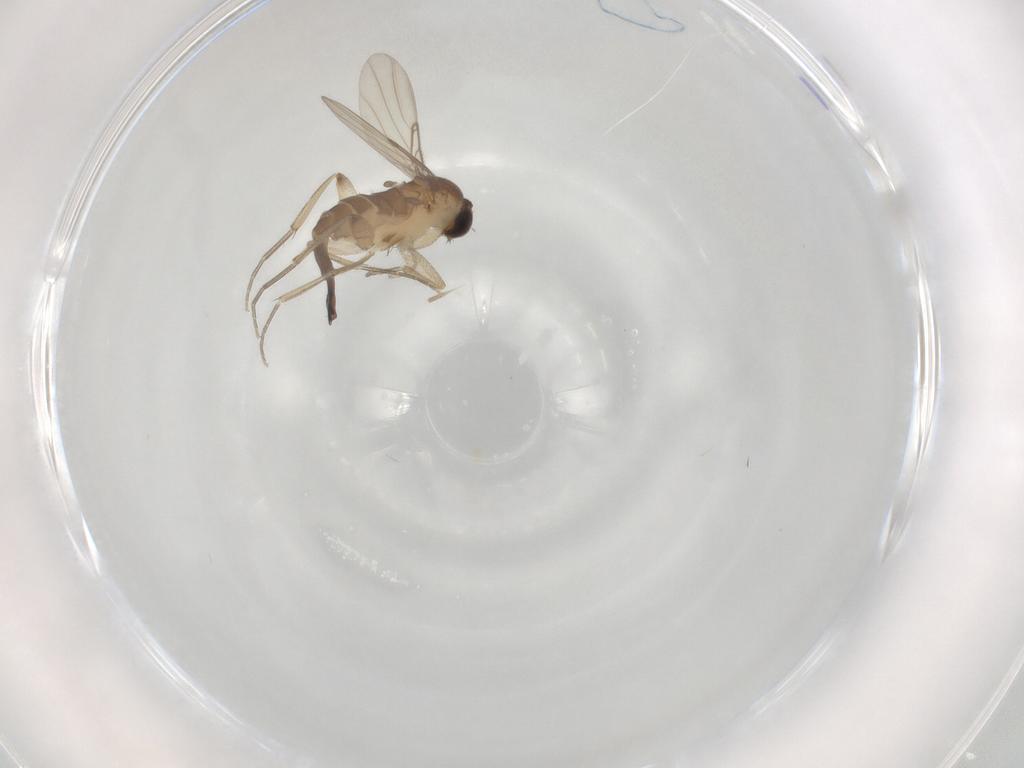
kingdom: Animalia
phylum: Arthropoda
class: Insecta
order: Diptera
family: Phoridae
